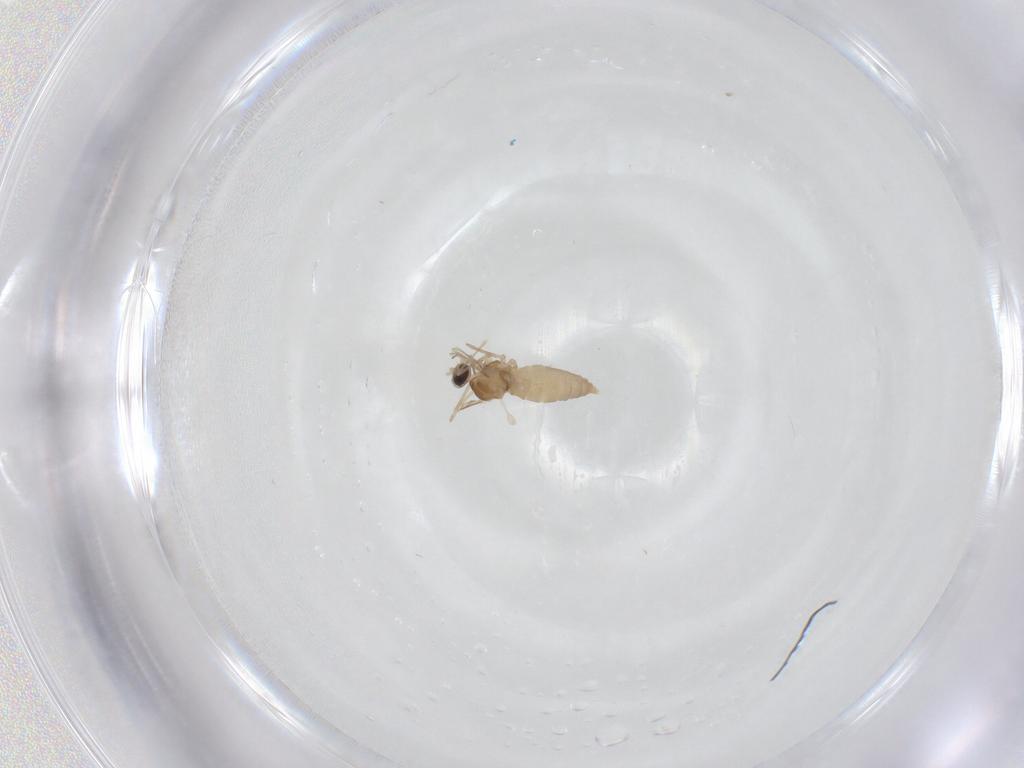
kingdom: Animalia
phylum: Arthropoda
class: Insecta
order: Diptera
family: Cecidomyiidae
